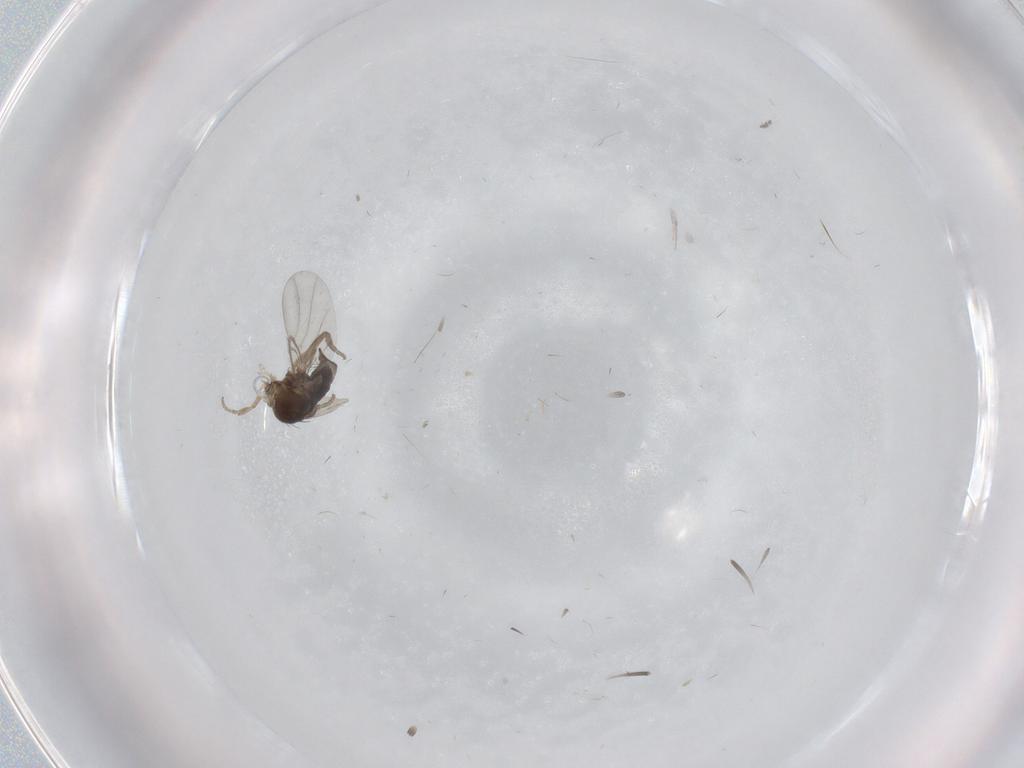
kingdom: Animalia
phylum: Arthropoda
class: Insecta
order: Diptera
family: Phoridae
